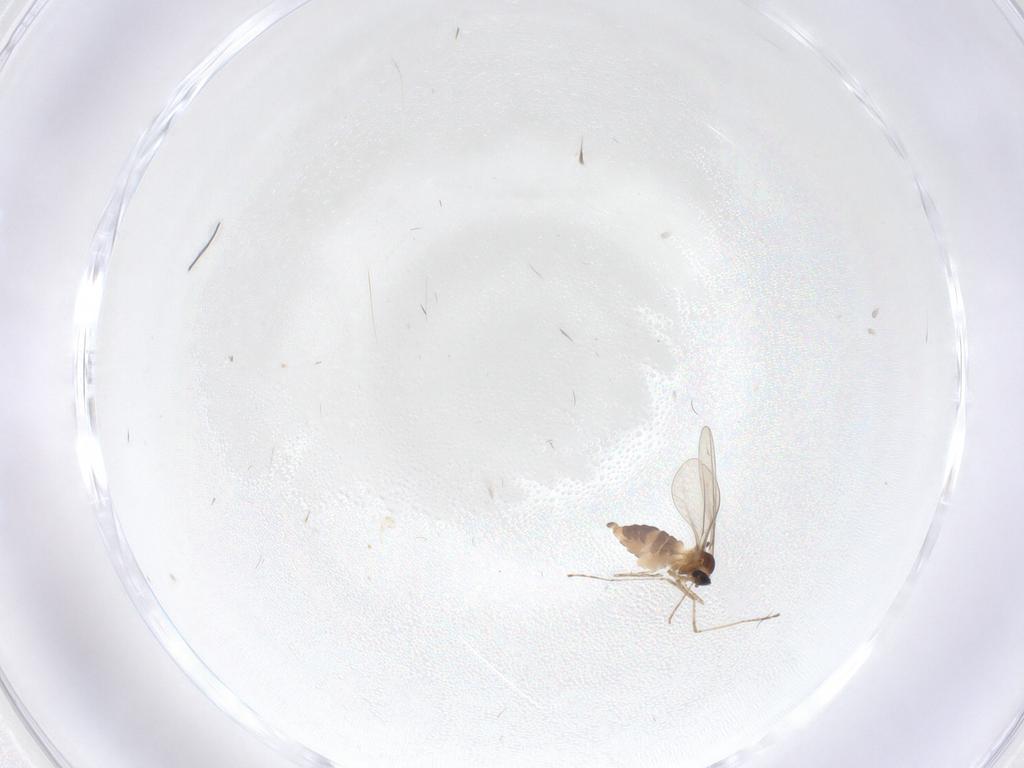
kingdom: Animalia
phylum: Arthropoda
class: Insecta
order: Diptera
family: Cecidomyiidae
